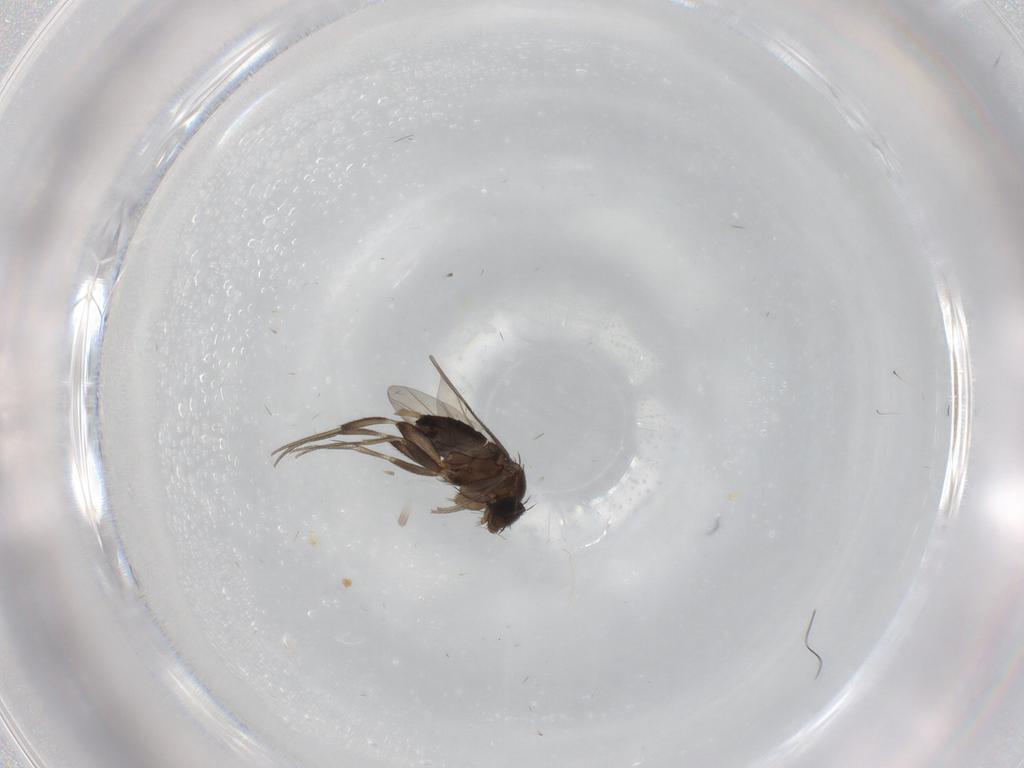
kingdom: Animalia
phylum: Arthropoda
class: Insecta
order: Diptera
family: Phoridae
